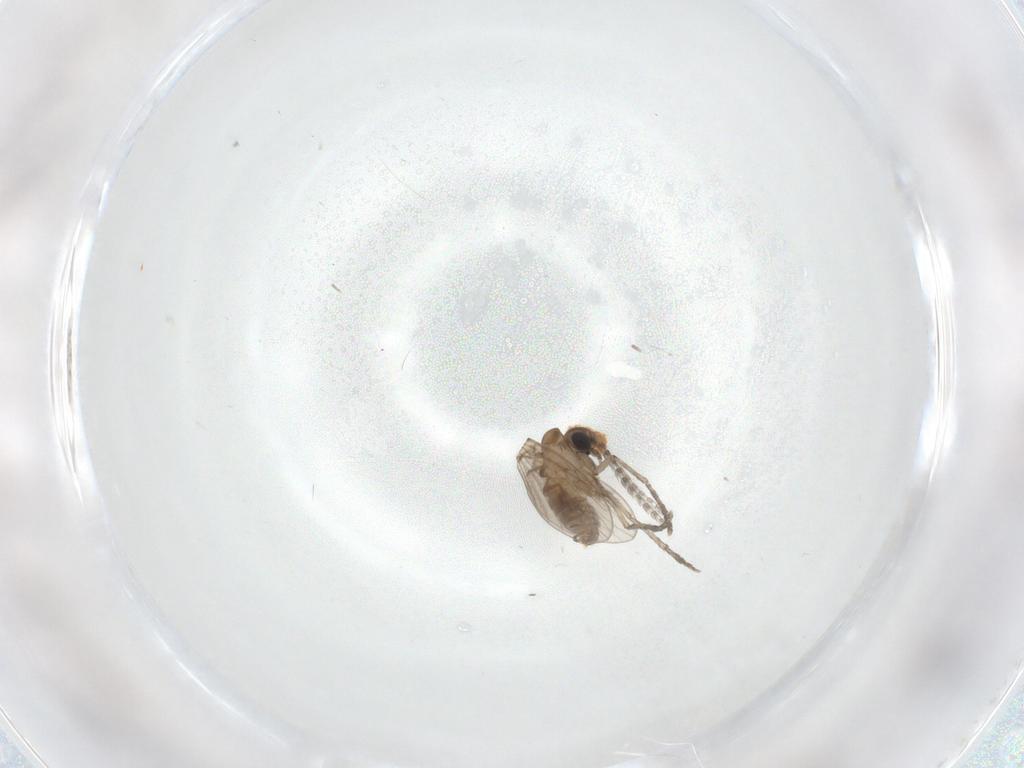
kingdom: Animalia
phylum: Arthropoda
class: Insecta
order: Diptera
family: Psychodidae
